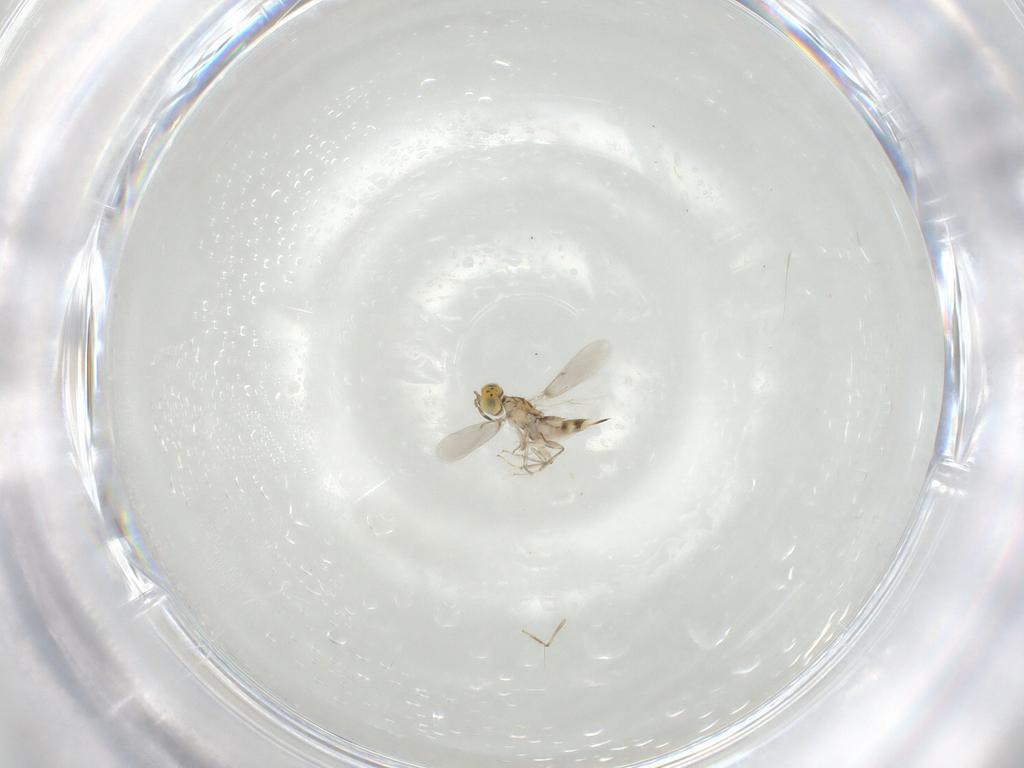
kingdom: Animalia
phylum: Arthropoda
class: Insecta
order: Hymenoptera
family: Aphelinidae
